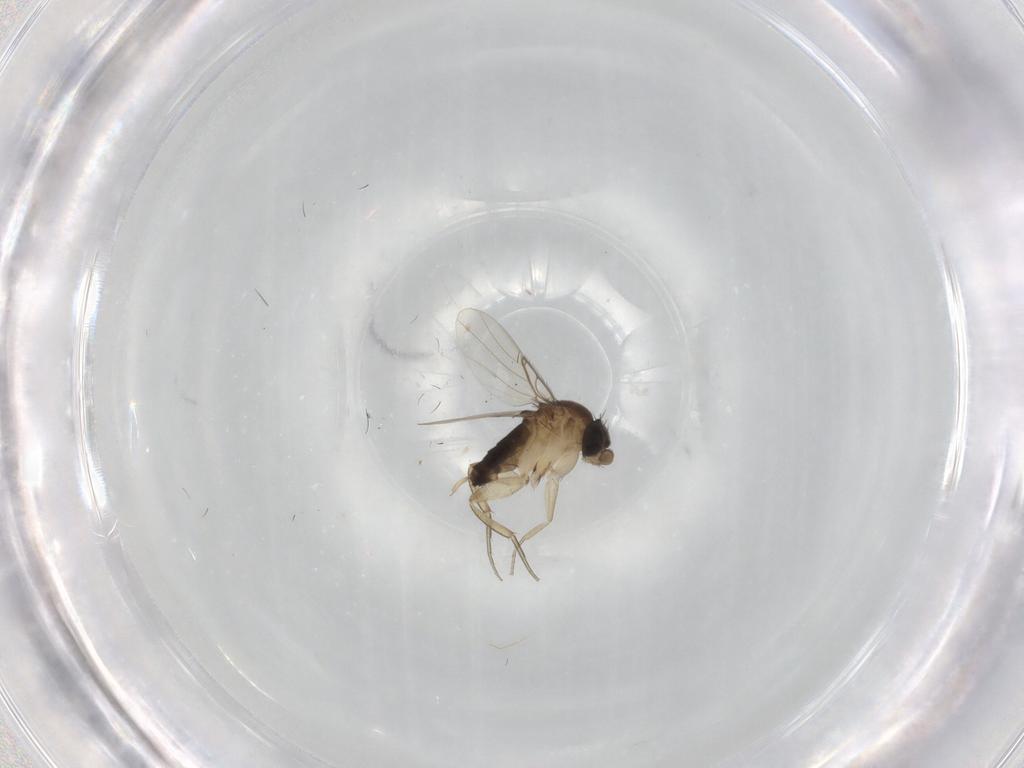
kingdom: Animalia
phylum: Arthropoda
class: Insecta
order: Diptera
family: Phoridae
